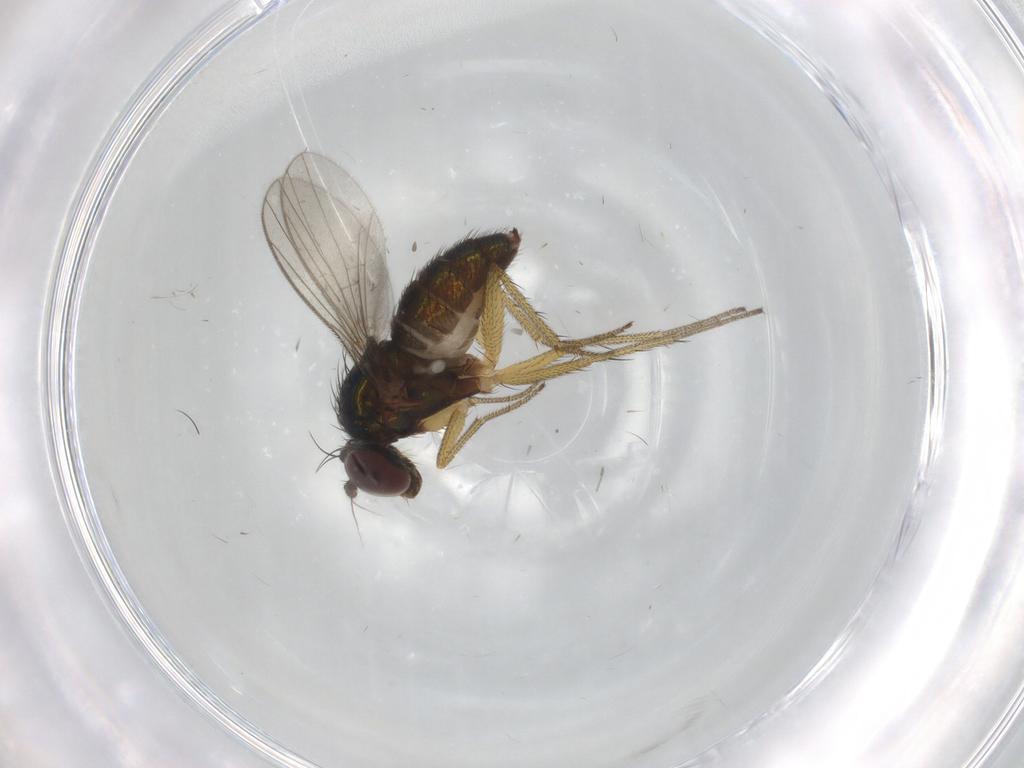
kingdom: Animalia
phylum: Arthropoda
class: Insecta
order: Diptera
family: Dolichopodidae
